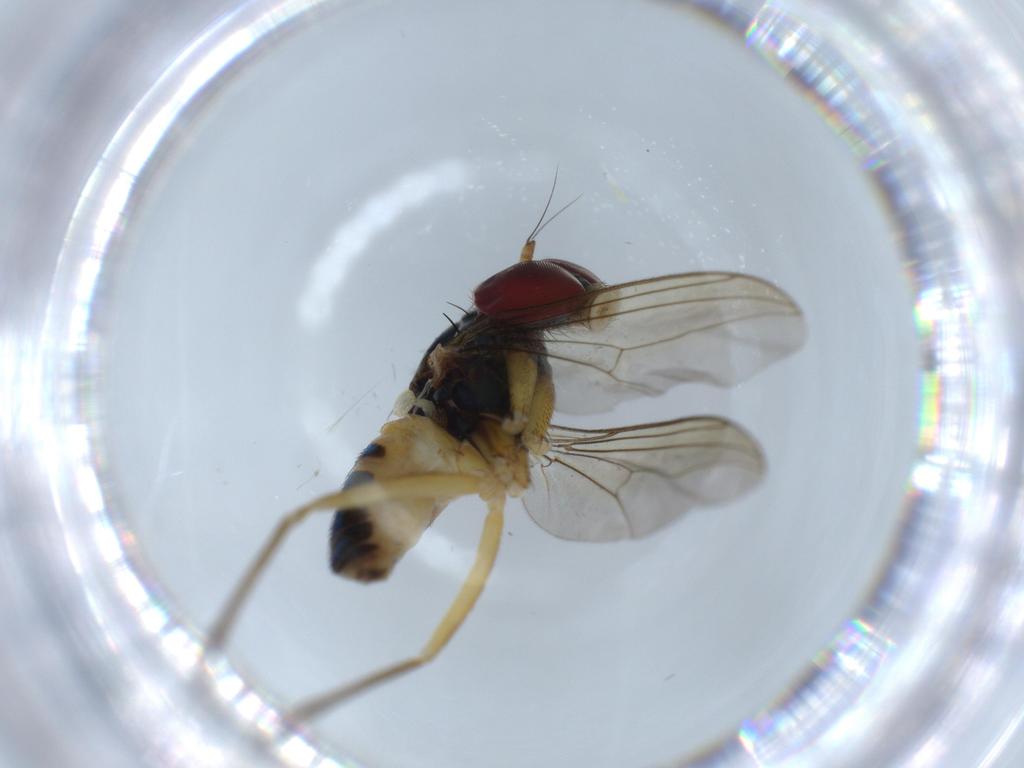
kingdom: Animalia
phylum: Arthropoda
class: Insecta
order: Diptera
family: Dolichopodidae
